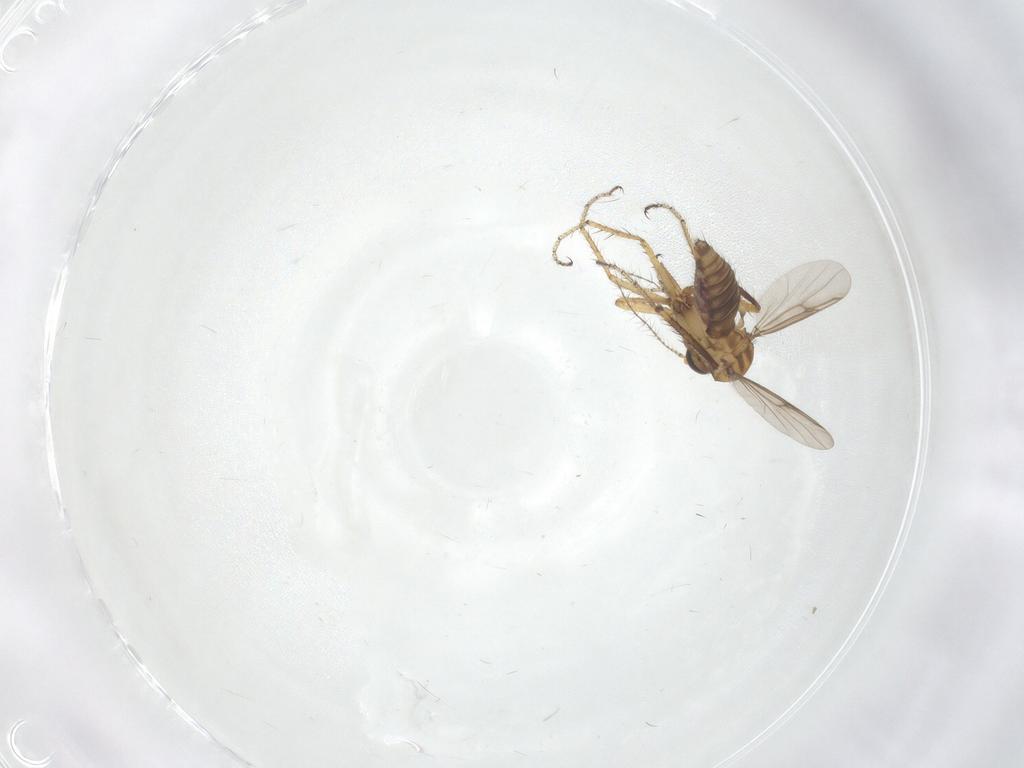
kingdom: Animalia
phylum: Arthropoda
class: Insecta
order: Diptera
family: Ceratopogonidae
